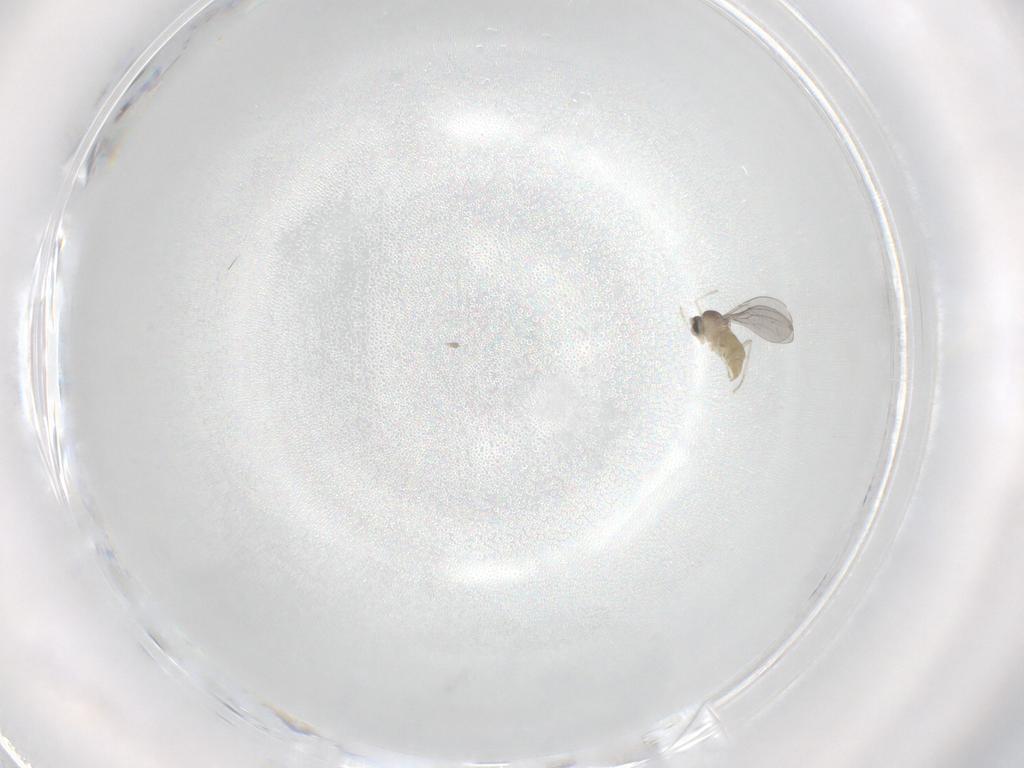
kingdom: Animalia
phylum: Arthropoda
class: Insecta
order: Diptera
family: Cecidomyiidae
